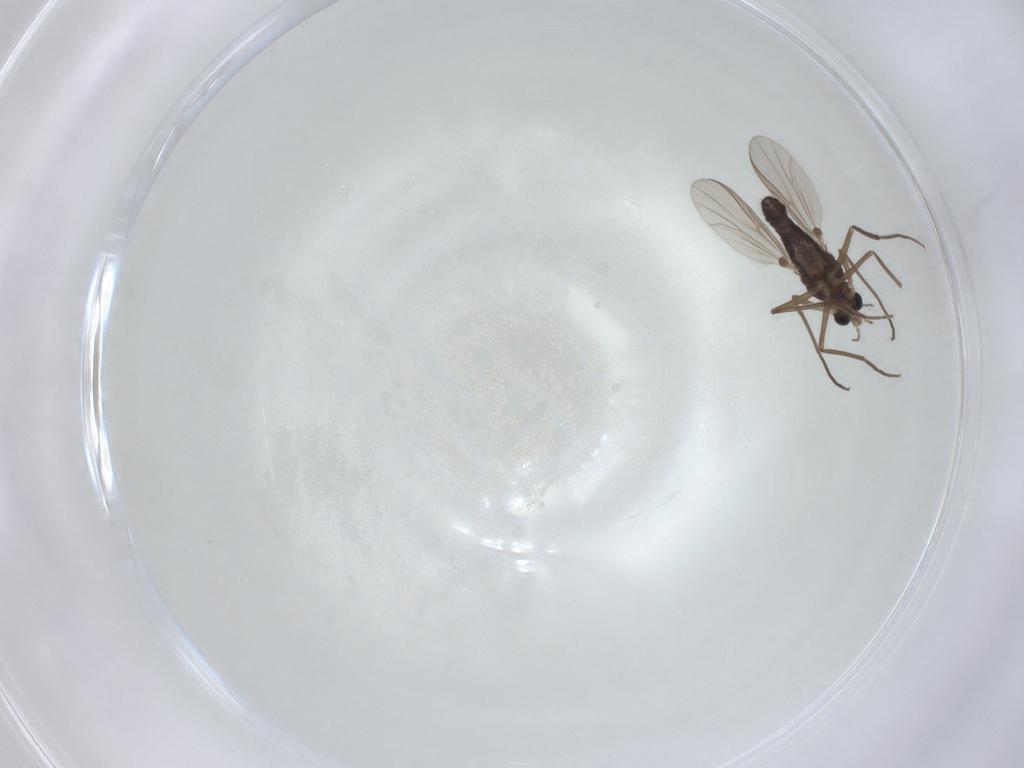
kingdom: Animalia
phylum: Arthropoda
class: Insecta
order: Diptera
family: Chironomidae
